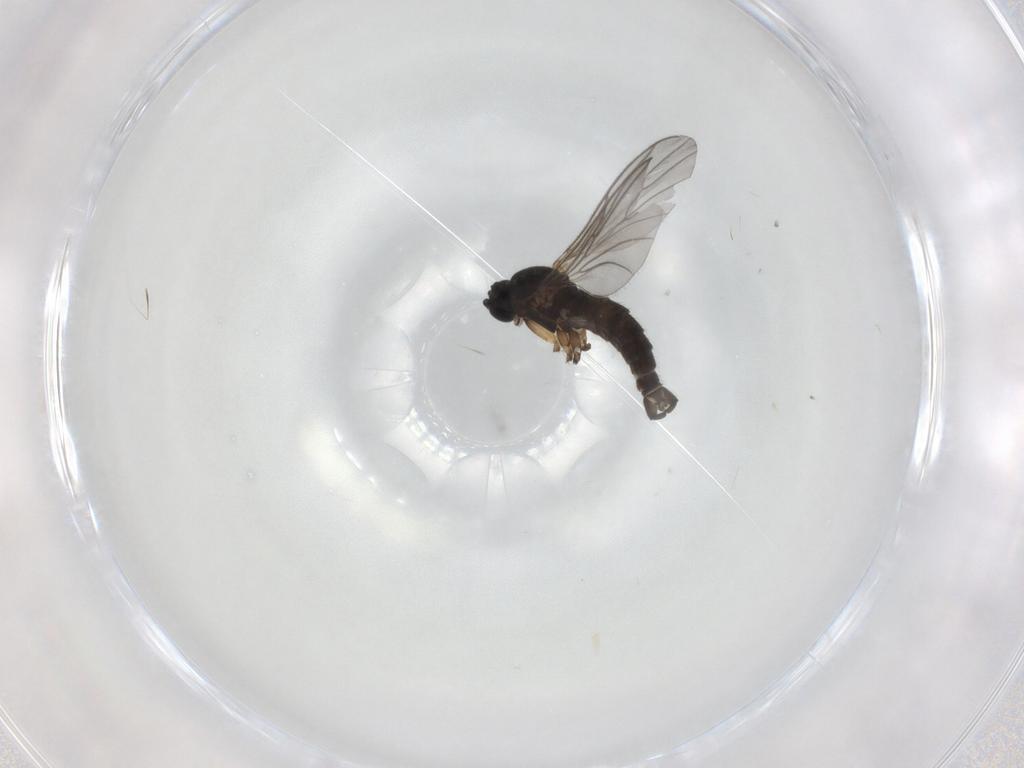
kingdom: Animalia
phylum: Arthropoda
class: Insecta
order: Diptera
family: Sciaridae
